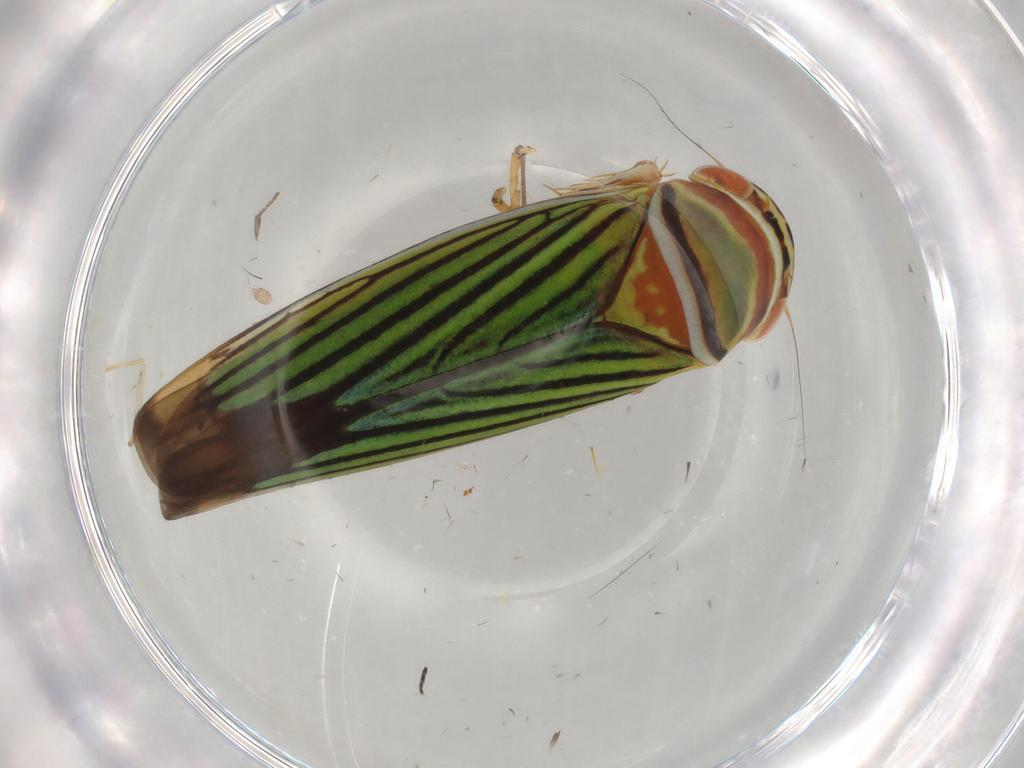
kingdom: Animalia
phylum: Arthropoda
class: Insecta
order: Hemiptera
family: Cicadellidae
